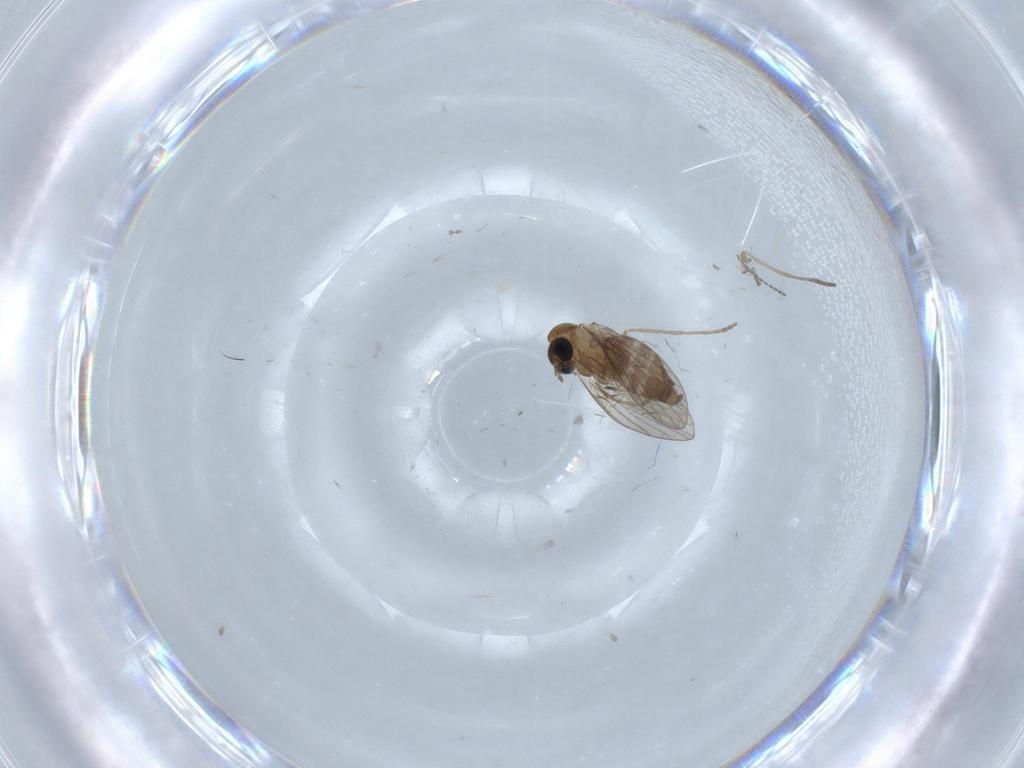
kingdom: Animalia
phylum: Arthropoda
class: Insecta
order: Diptera
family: Cecidomyiidae
